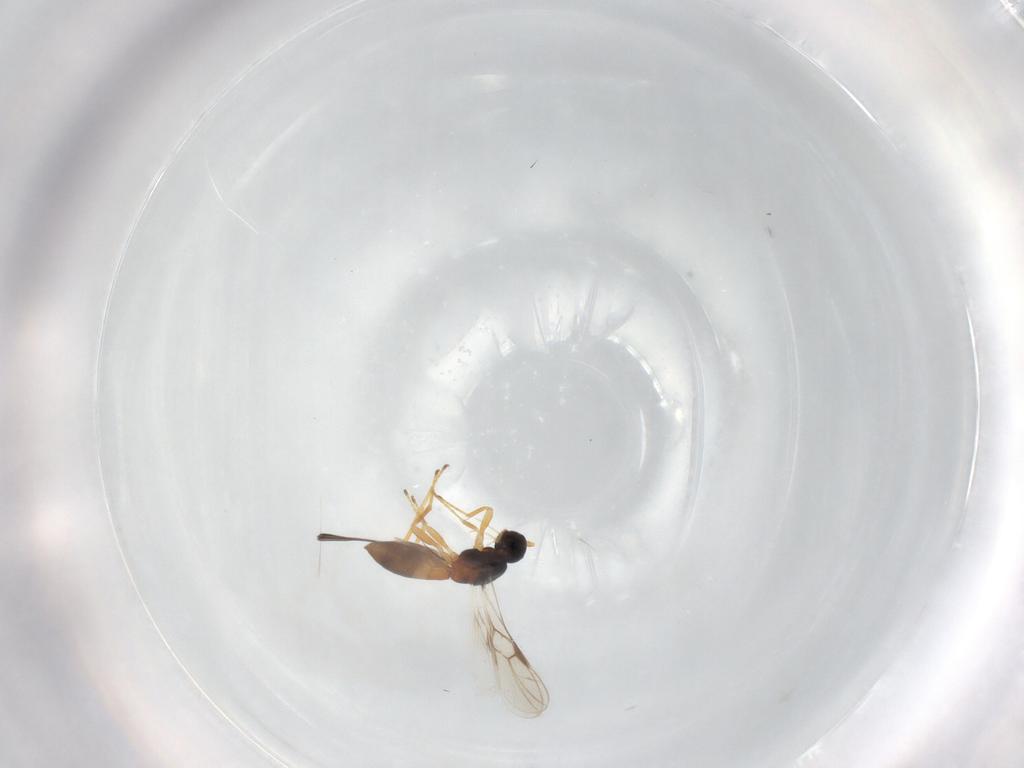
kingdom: Animalia
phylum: Arthropoda
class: Insecta
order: Hymenoptera
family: Braconidae
